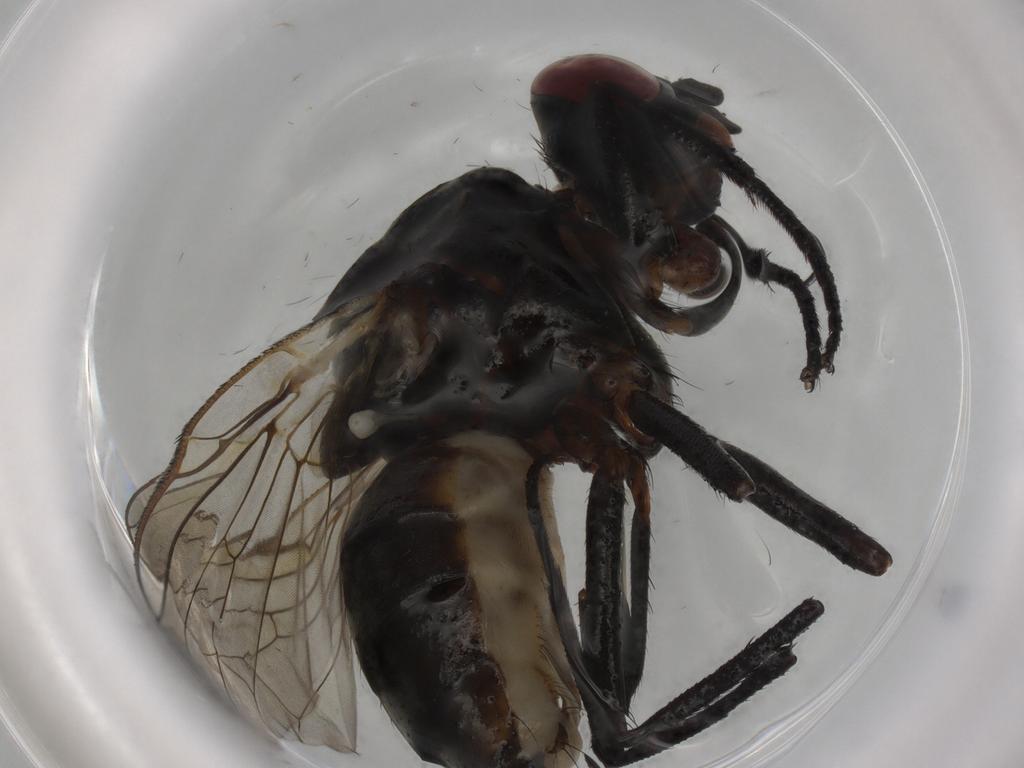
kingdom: Animalia
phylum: Arthropoda
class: Insecta
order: Diptera
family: Anthomyiidae
